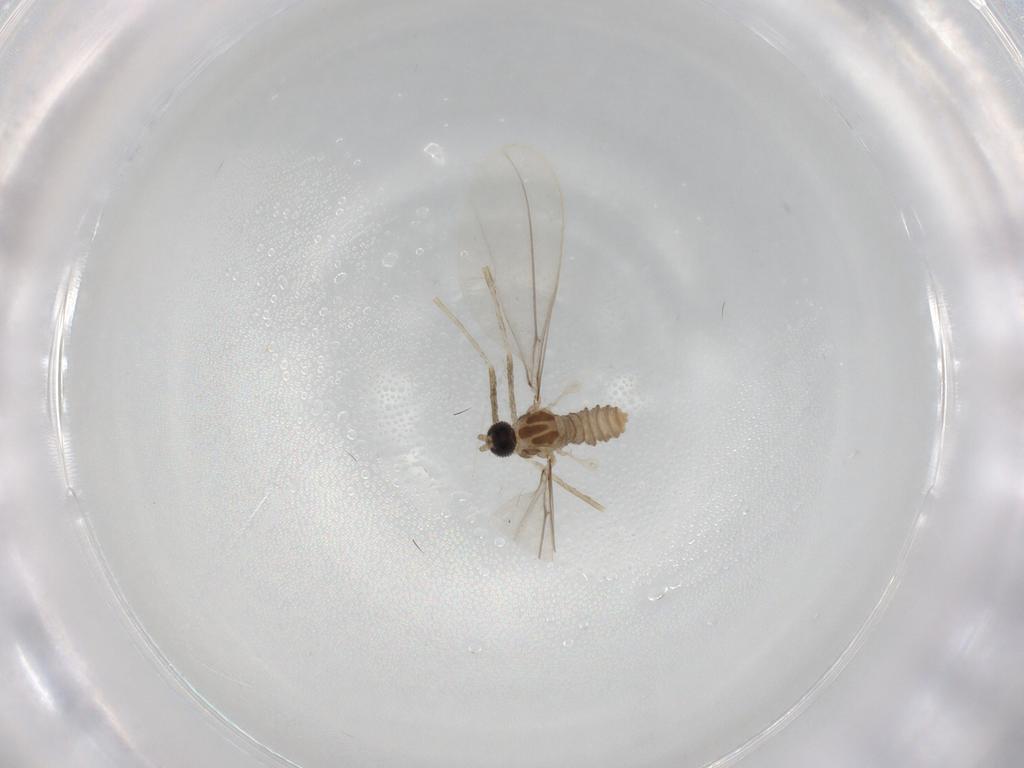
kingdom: Animalia
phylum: Arthropoda
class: Insecta
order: Diptera
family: Cecidomyiidae
